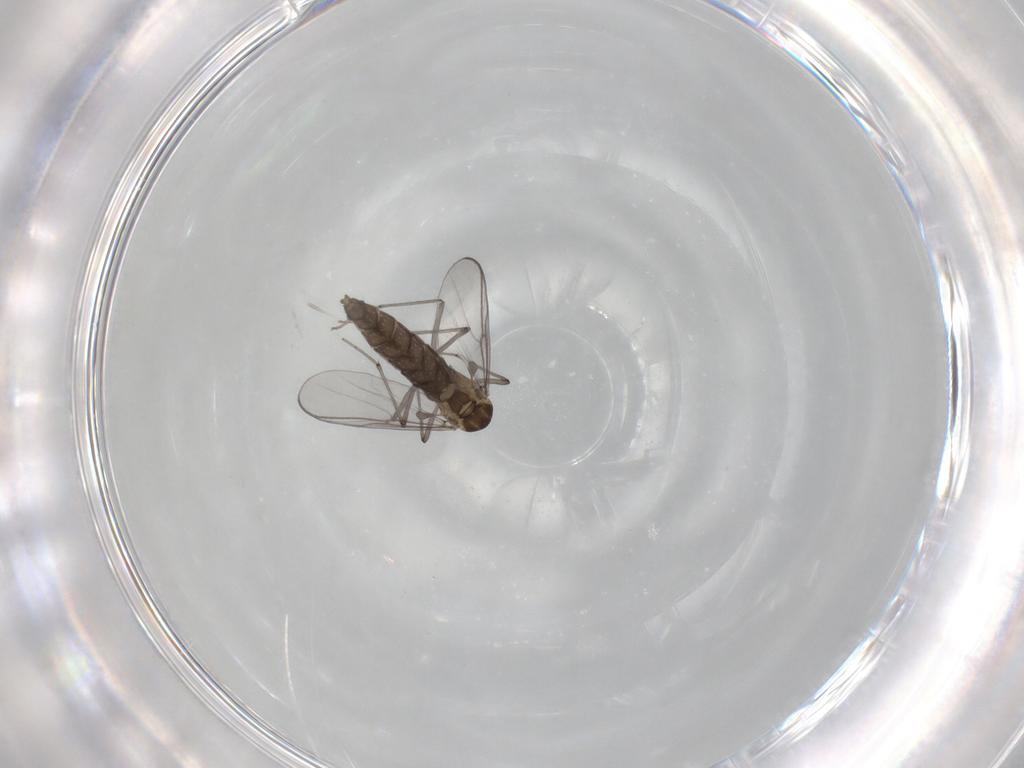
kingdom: Animalia
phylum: Arthropoda
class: Insecta
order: Diptera
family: Chironomidae
